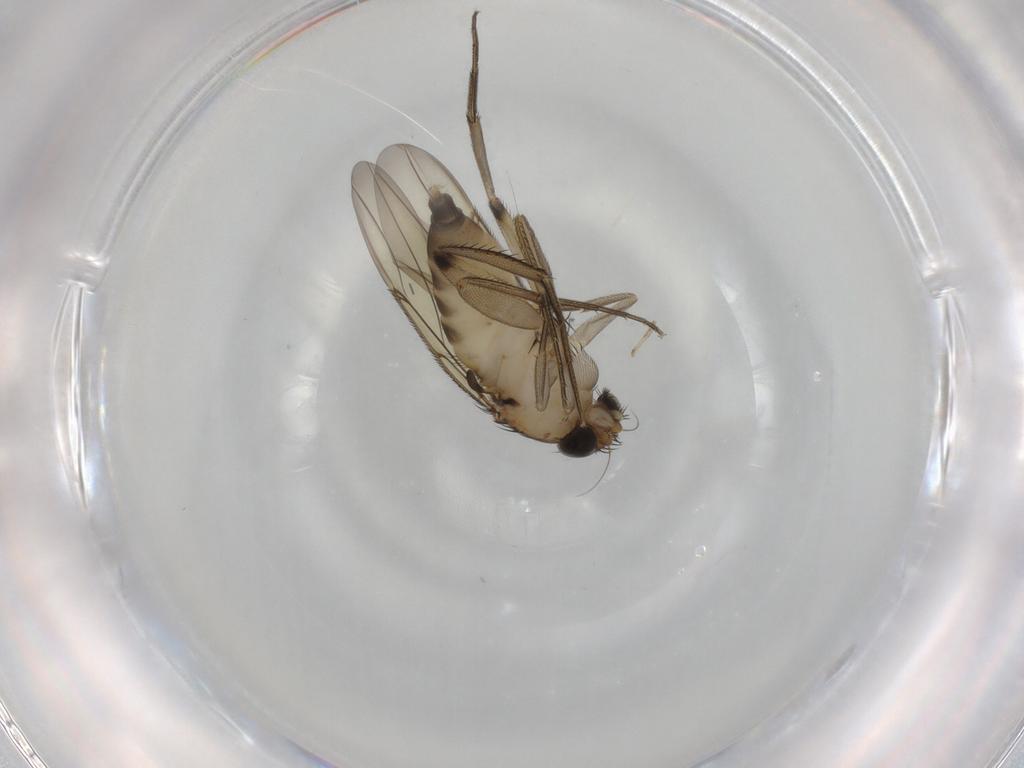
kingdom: Animalia
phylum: Arthropoda
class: Insecta
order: Diptera
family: Phoridae
